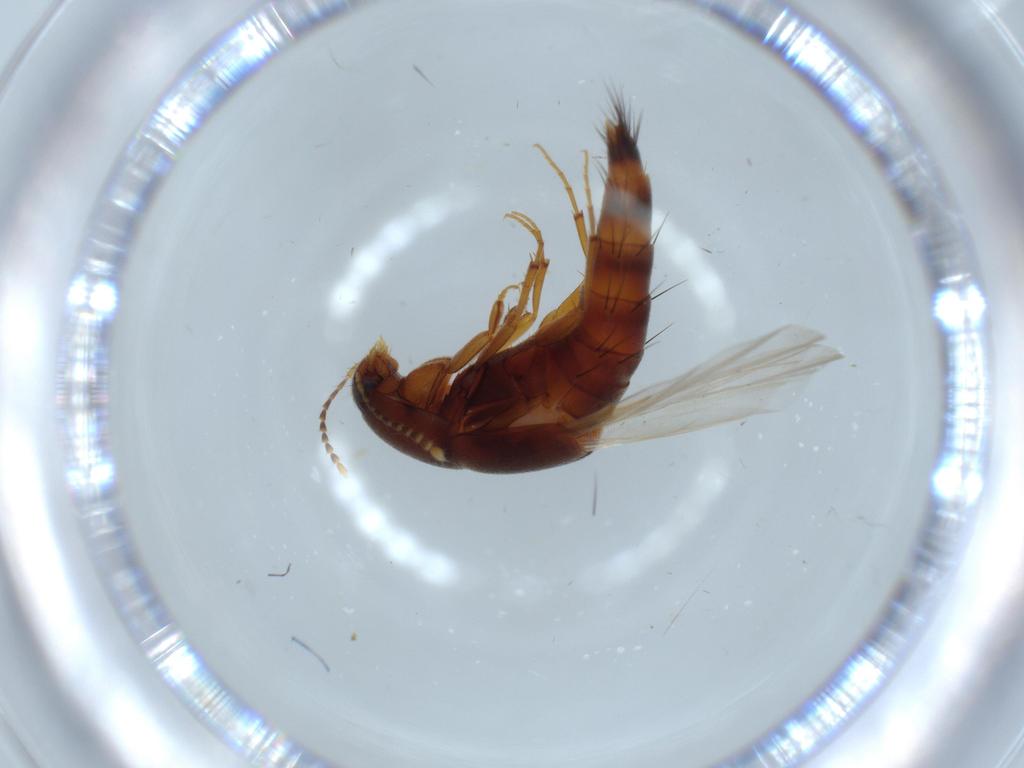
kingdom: Animalia
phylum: Arthropoda
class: Insecta
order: Coleoptera
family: Staphylinidae
